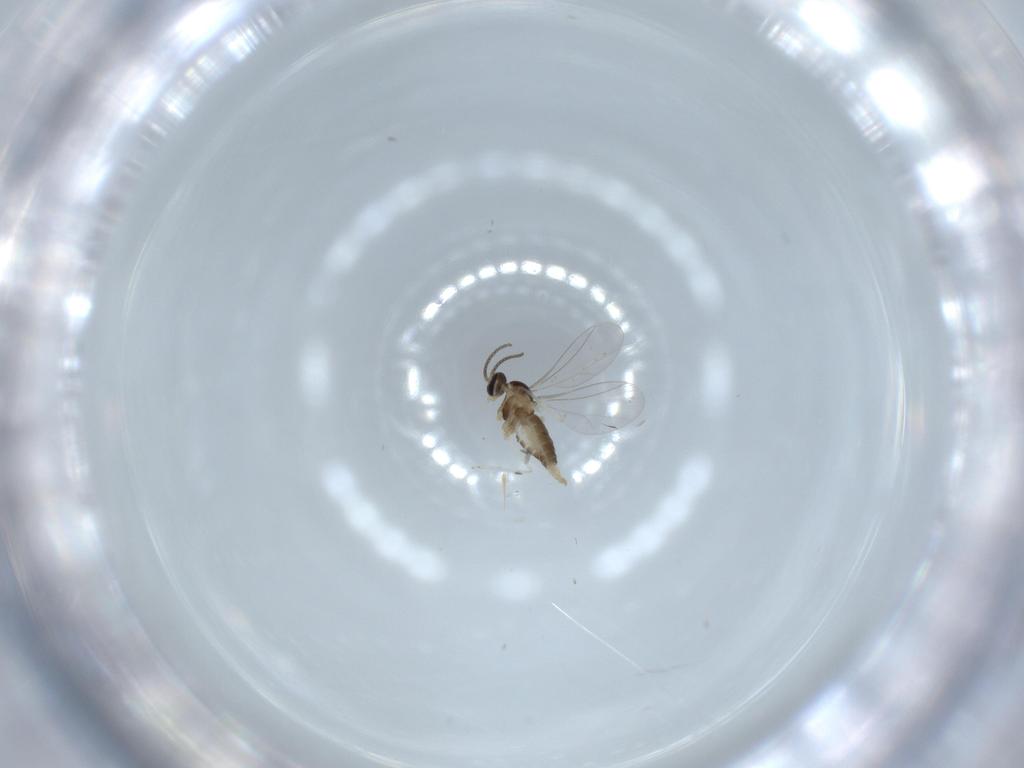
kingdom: Animalia
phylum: Arthropoda
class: Insecta
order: Diptera
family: Cecidomyiidae
